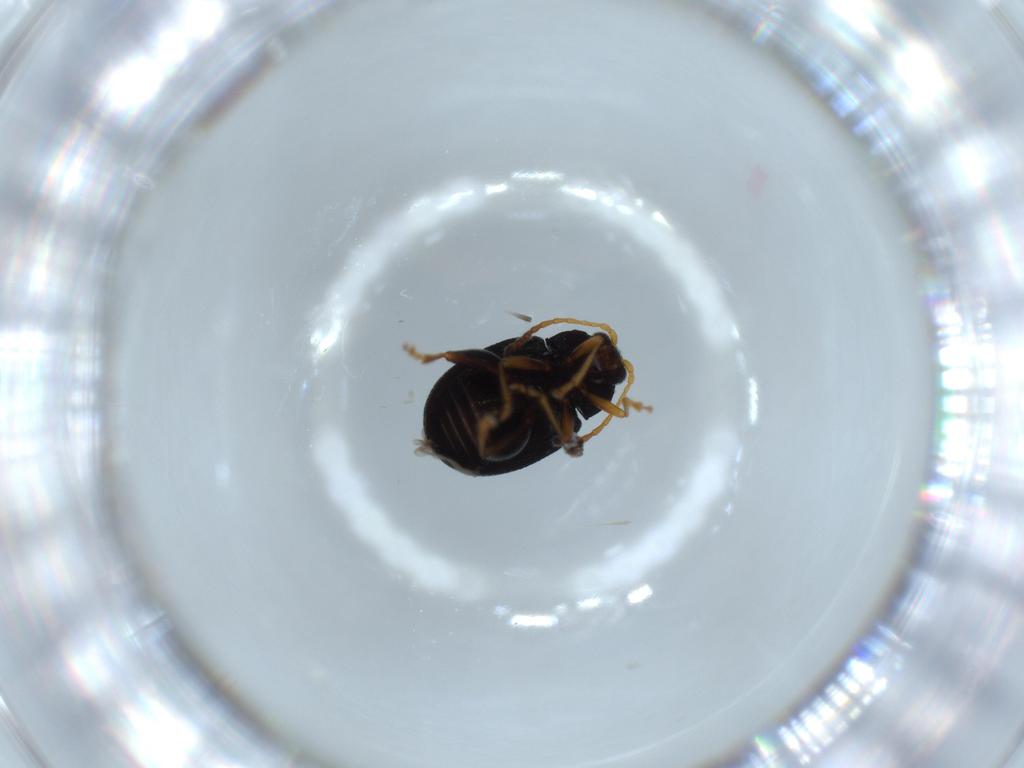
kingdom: Animalia
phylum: Arthropoda
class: Insecta
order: Coleoptera
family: Chrysomelidae
